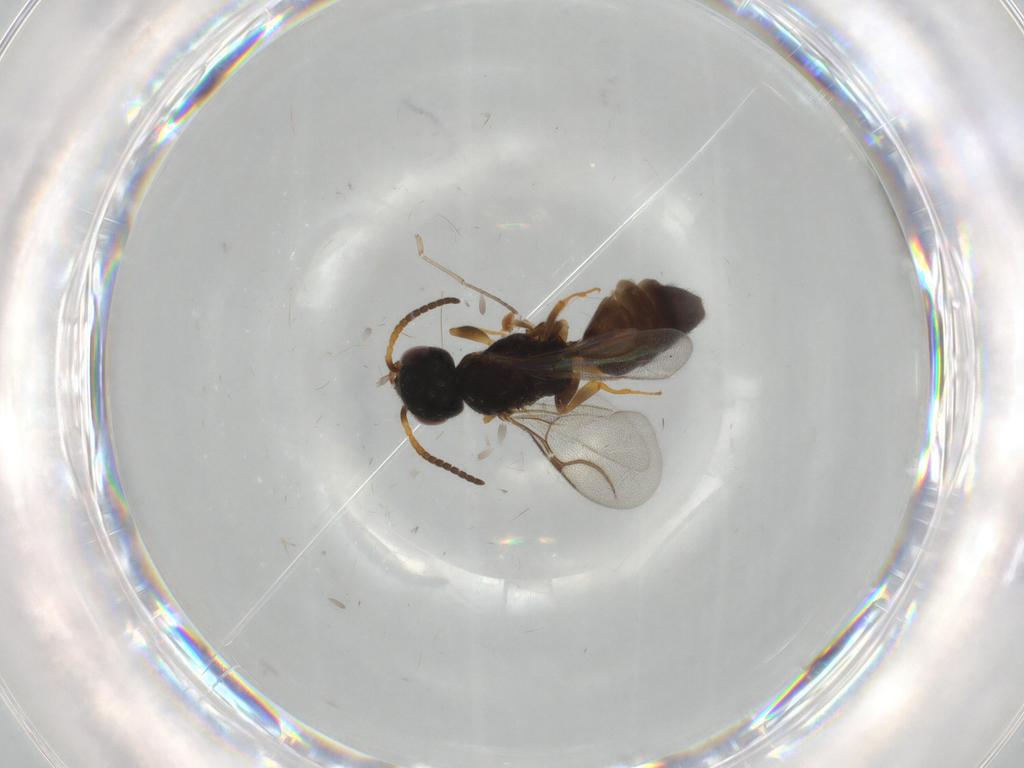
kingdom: Animalia
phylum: Arthropoda
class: Insecta
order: Hymenoptera
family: Bethylidae
